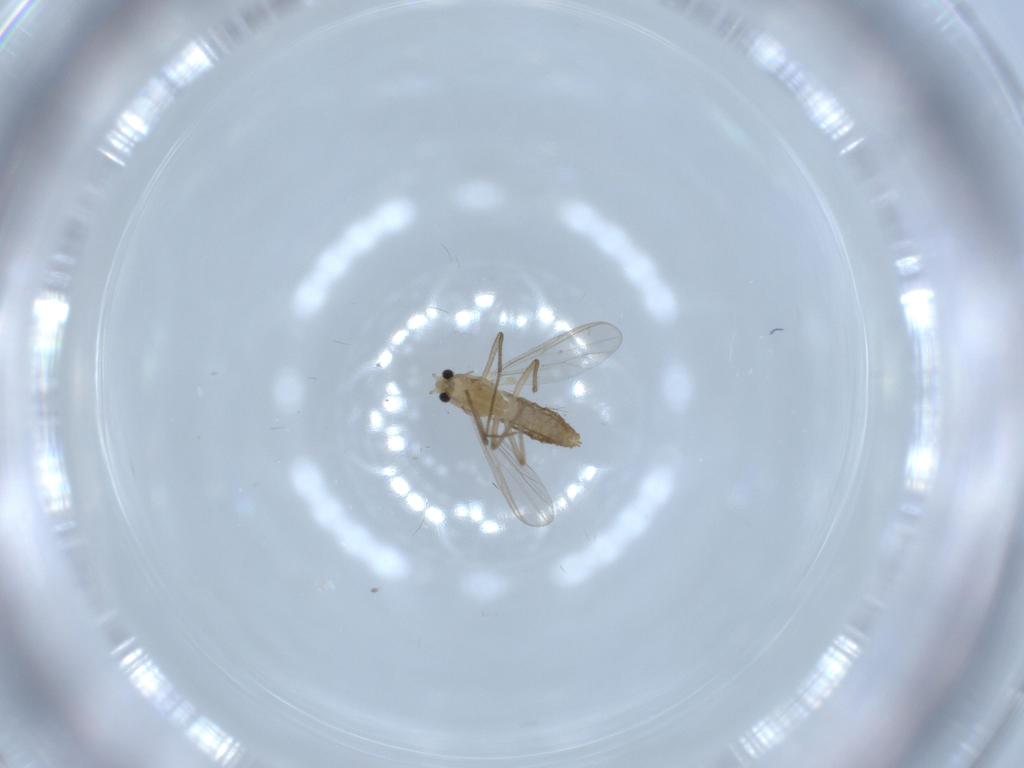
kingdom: Animalia
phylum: Arthropoda
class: Insecta
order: Diptera
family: Chironomidae
